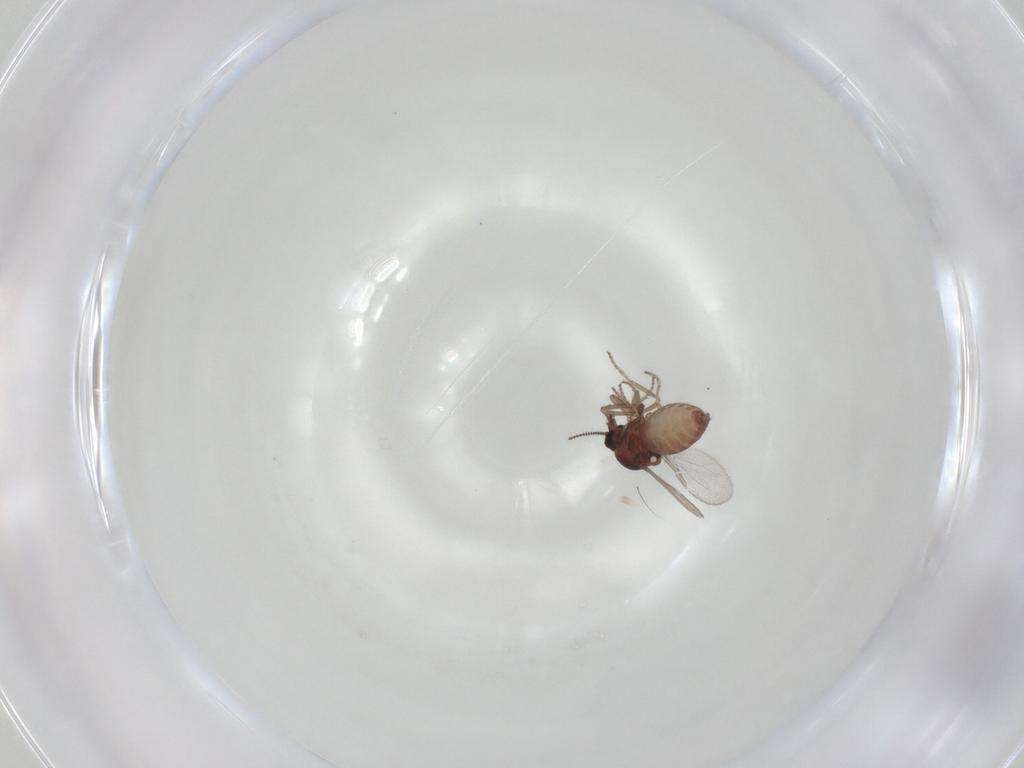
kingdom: Animalia
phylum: Arthropoda
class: Insecta
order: Diptera
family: Ceratopogonidae
